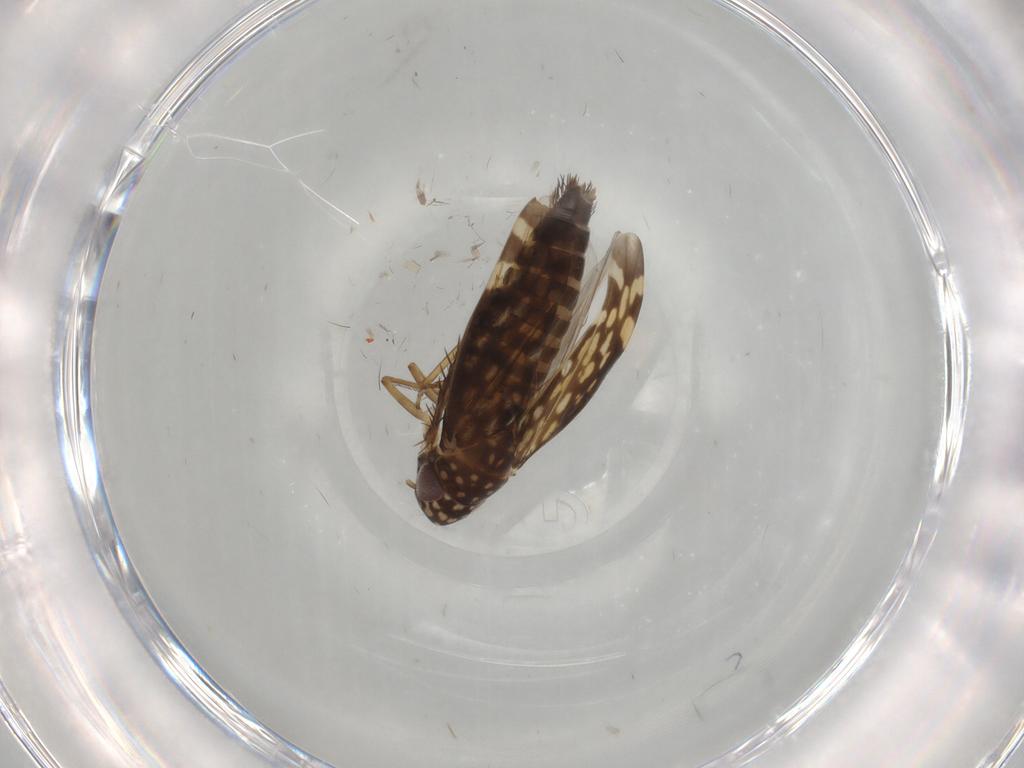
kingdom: Animalia
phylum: Arthropoda
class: Insecta
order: Hemiptera
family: Cicadellidae
